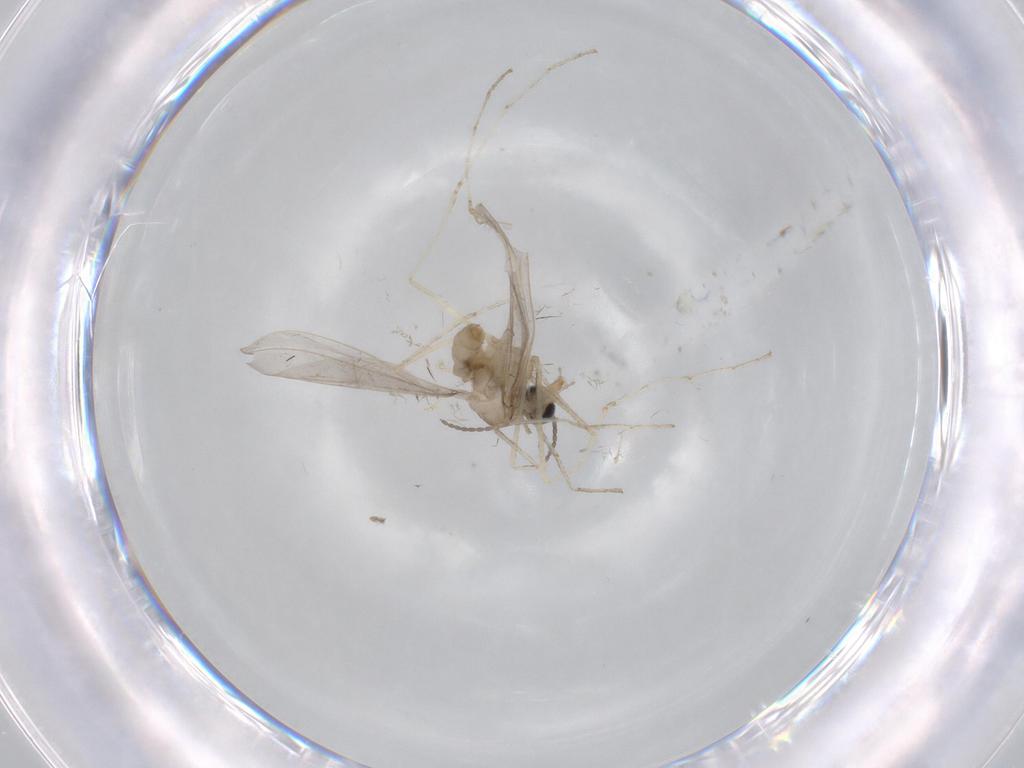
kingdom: Animalia
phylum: Arthropoda
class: Insecta
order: Diptera
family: Cecidomyiidae
